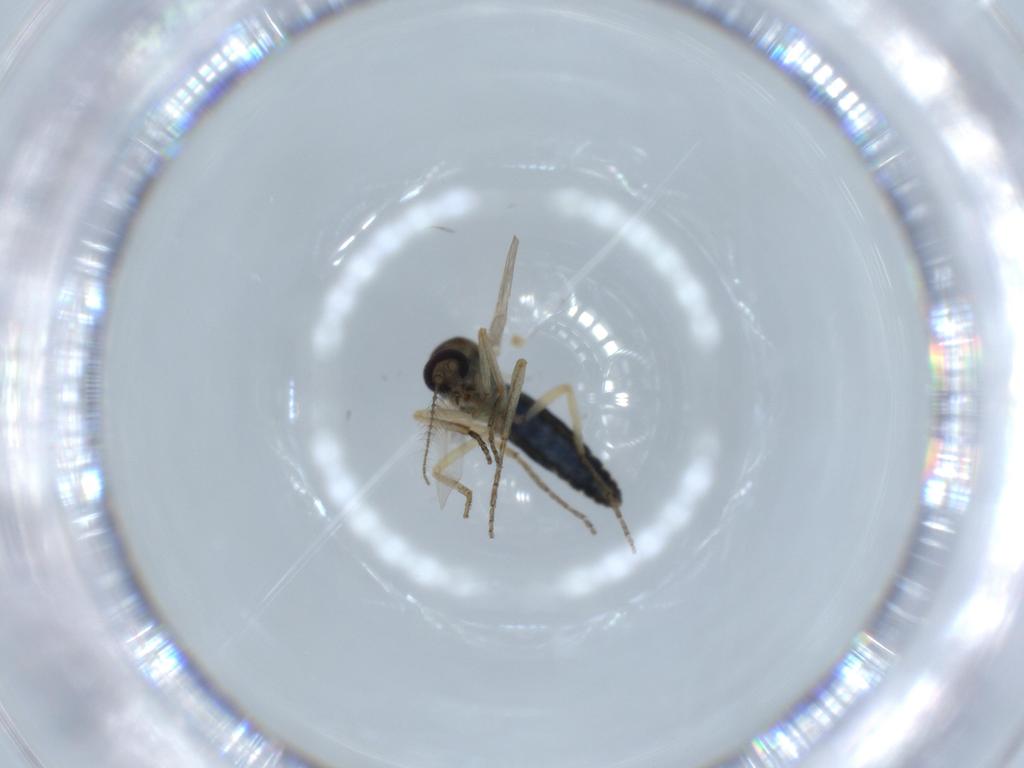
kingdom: Animalia
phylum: Arthropoda
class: Insecta
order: Diptera
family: Ceratopogonidae
